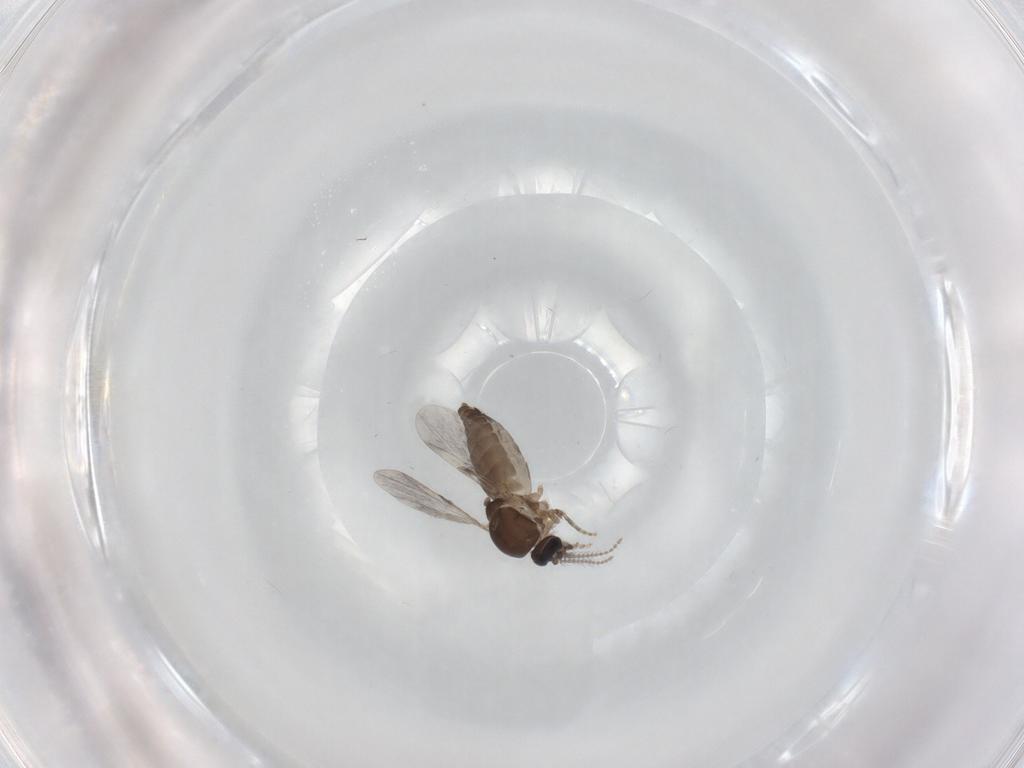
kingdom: Animalia
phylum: Arthropoda
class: Insecta
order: Diptera
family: Ceratopogonidae
